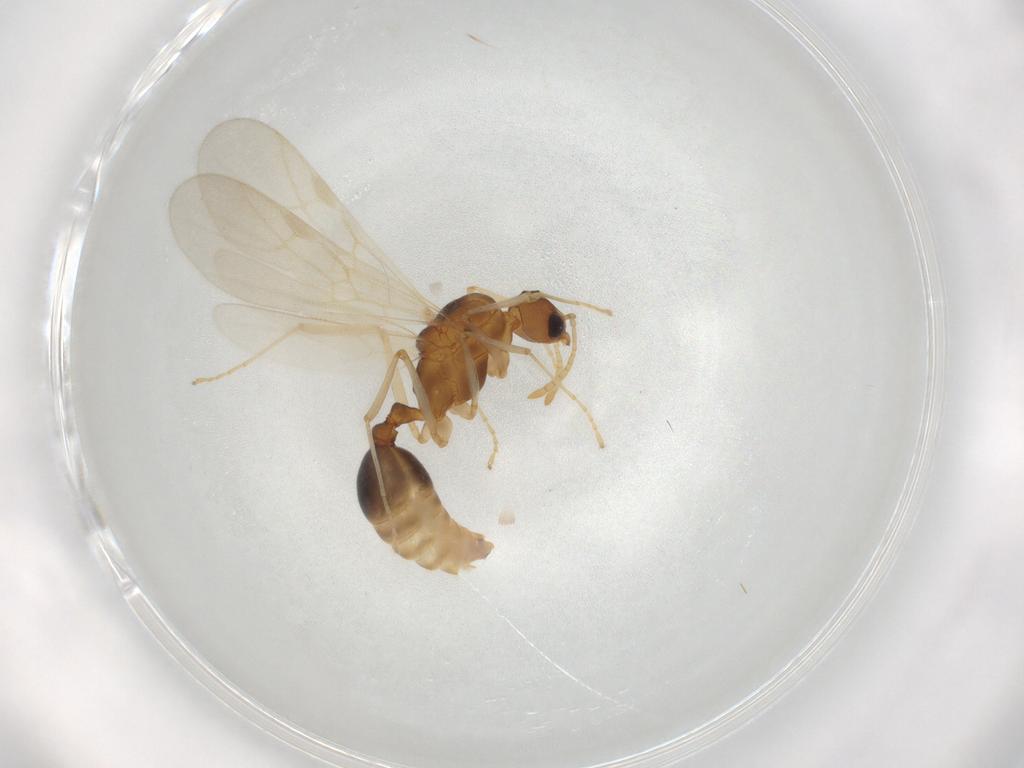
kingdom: Animalia
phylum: Arthropoda
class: Insecta
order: Hymenoptera
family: Formicidae
